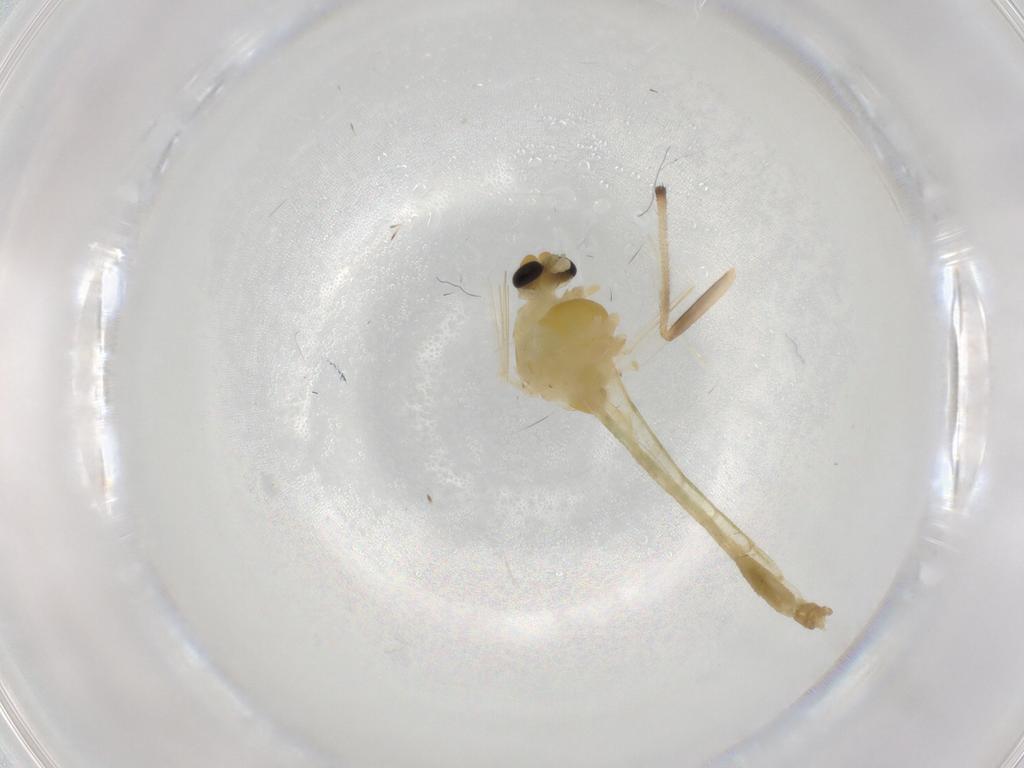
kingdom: Animalia
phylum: Arthropoda
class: Insecta
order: Diptera
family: Chironomidae
